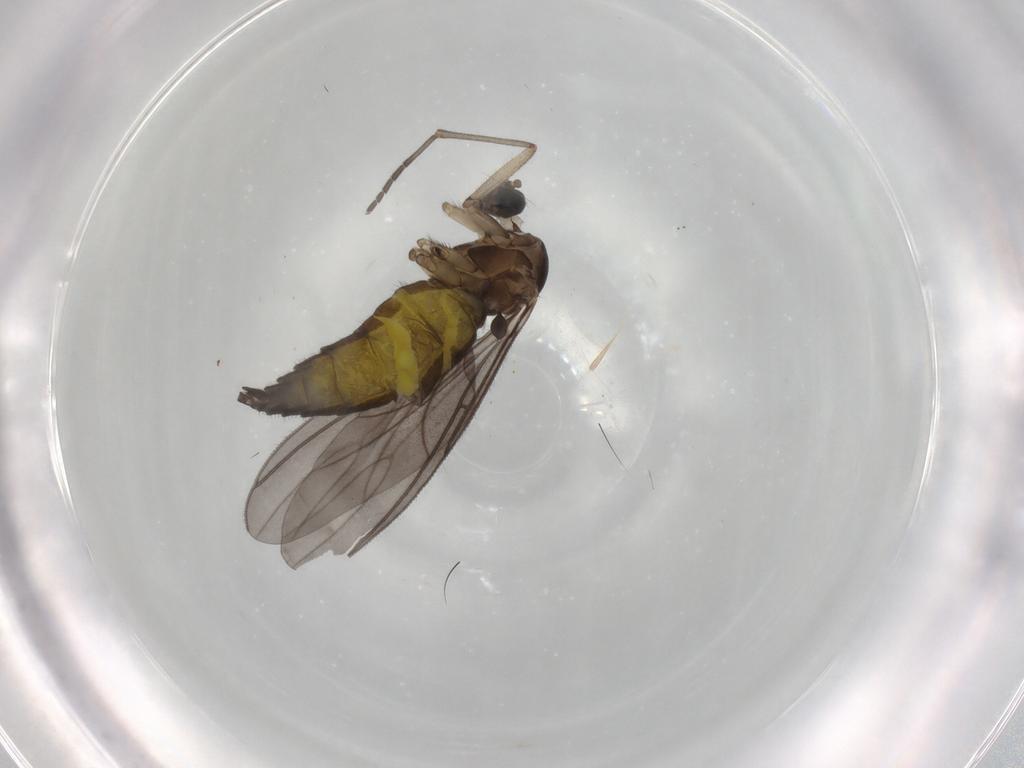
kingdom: Animalia
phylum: Arthropoda
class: Insecta
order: Diptera
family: Sciaridae
